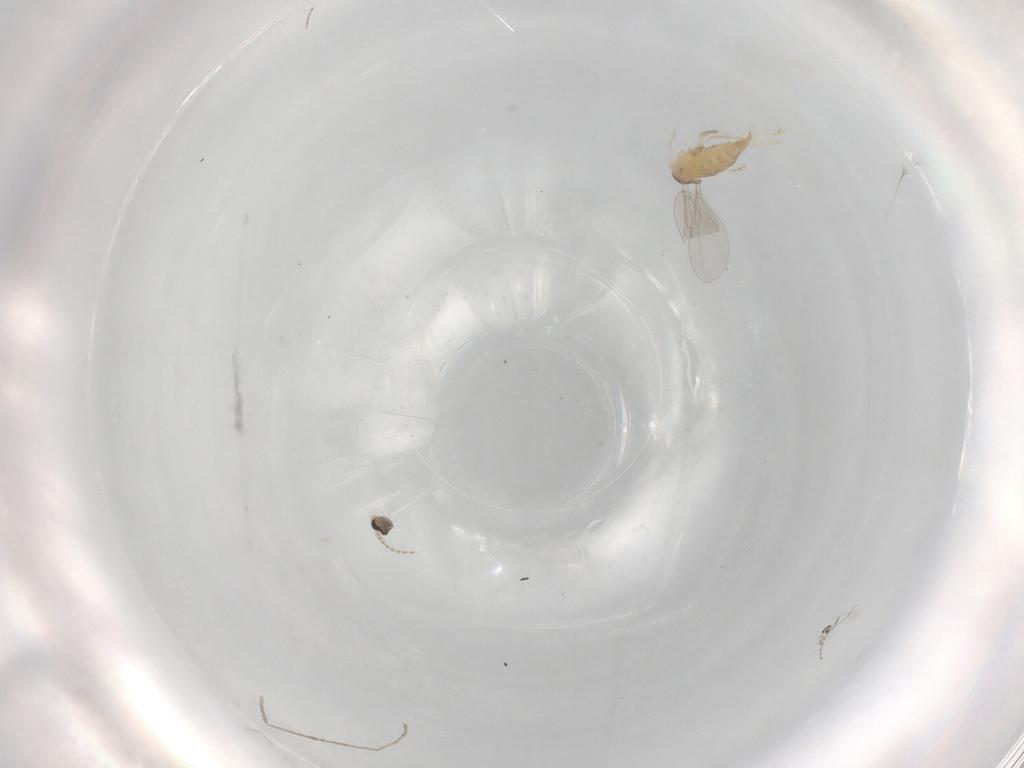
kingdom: Animalia
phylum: Arthropoda
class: Insecta
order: Diptera
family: Cecidomyiidae
